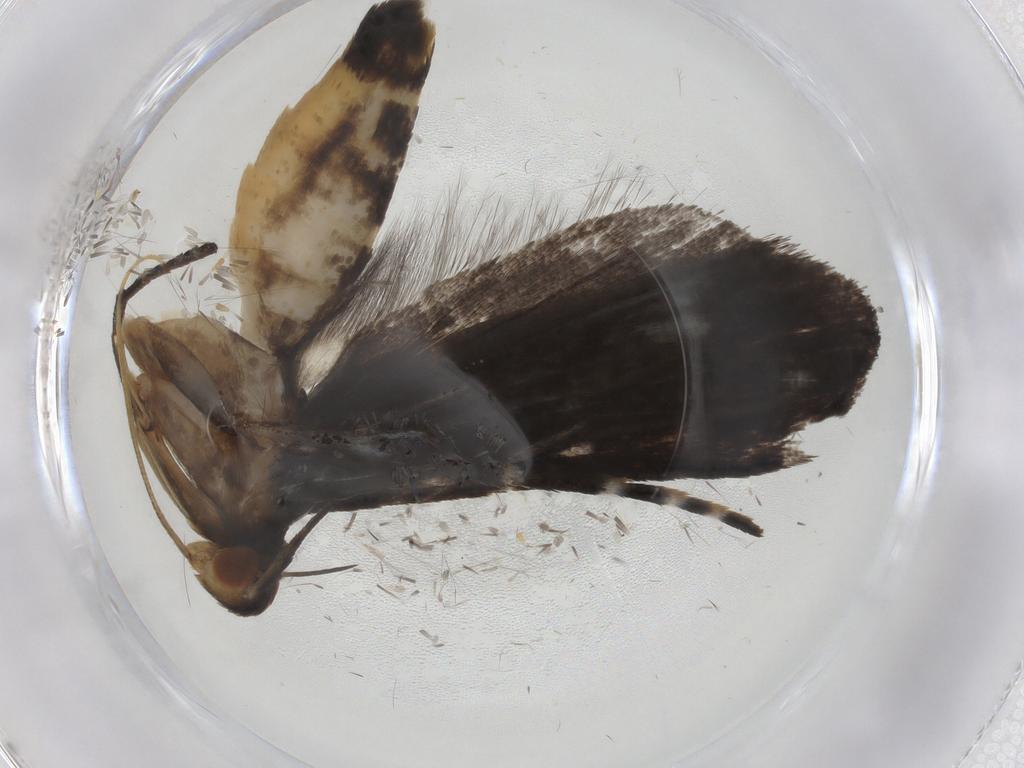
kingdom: Animalia
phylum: Arthropoda
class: Insecta
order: Lepidoptera
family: Gelechiidae
